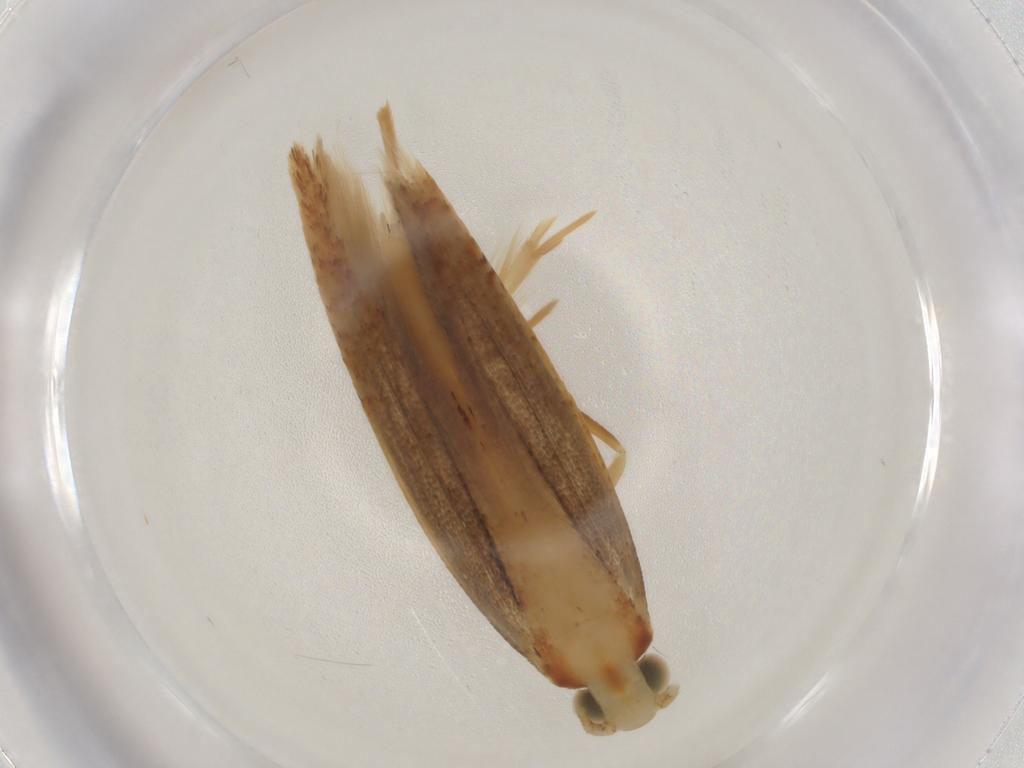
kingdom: Animalia
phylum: Arthropoda
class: Insecta
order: Lepidoptera
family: Tineidae
